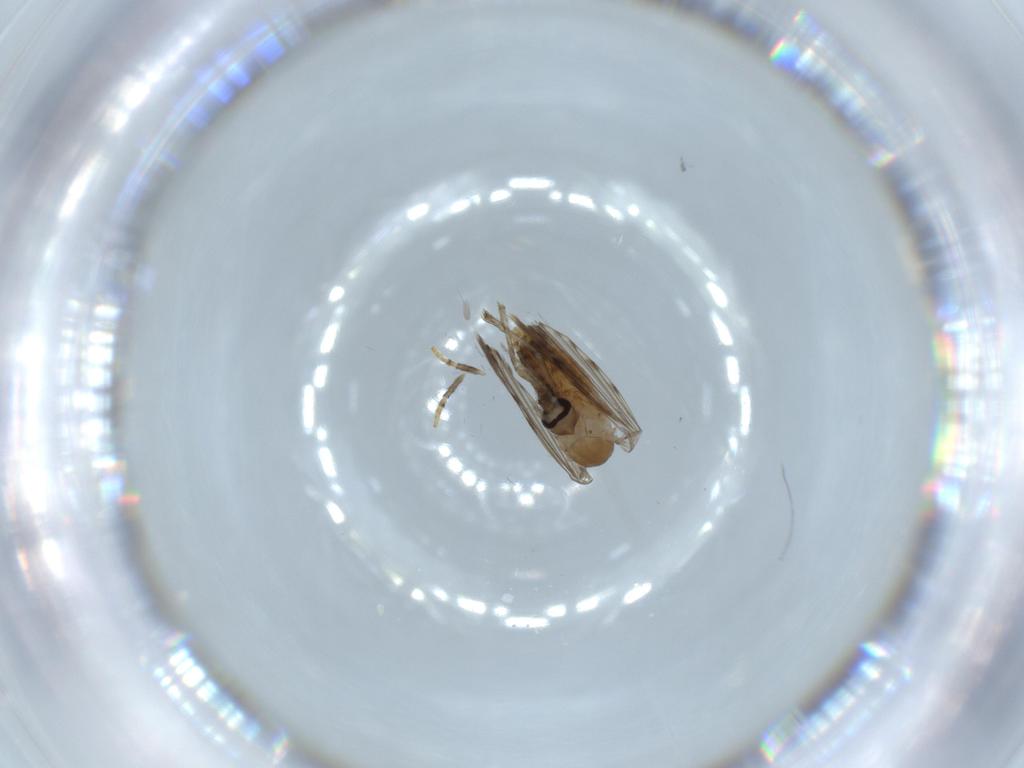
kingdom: Animalia
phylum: Arthropoda
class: Insecta
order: Diptera
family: Psychodidae
